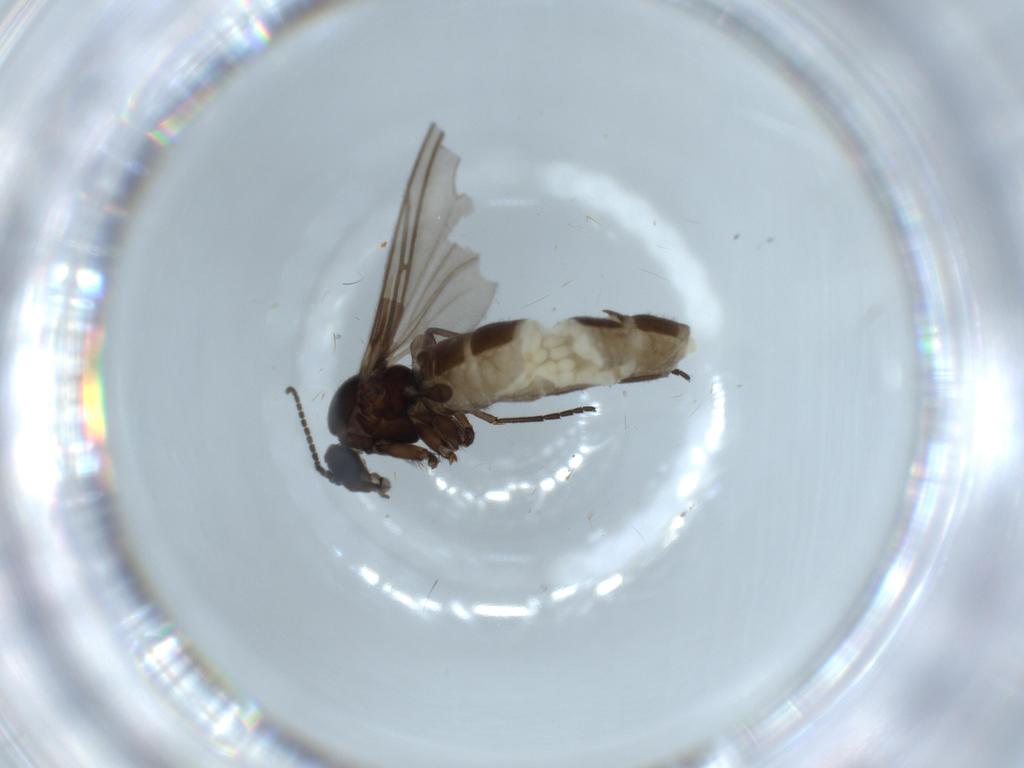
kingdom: Animalia
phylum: Arthropoda
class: Insecta
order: Diptera
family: Sciaridae
